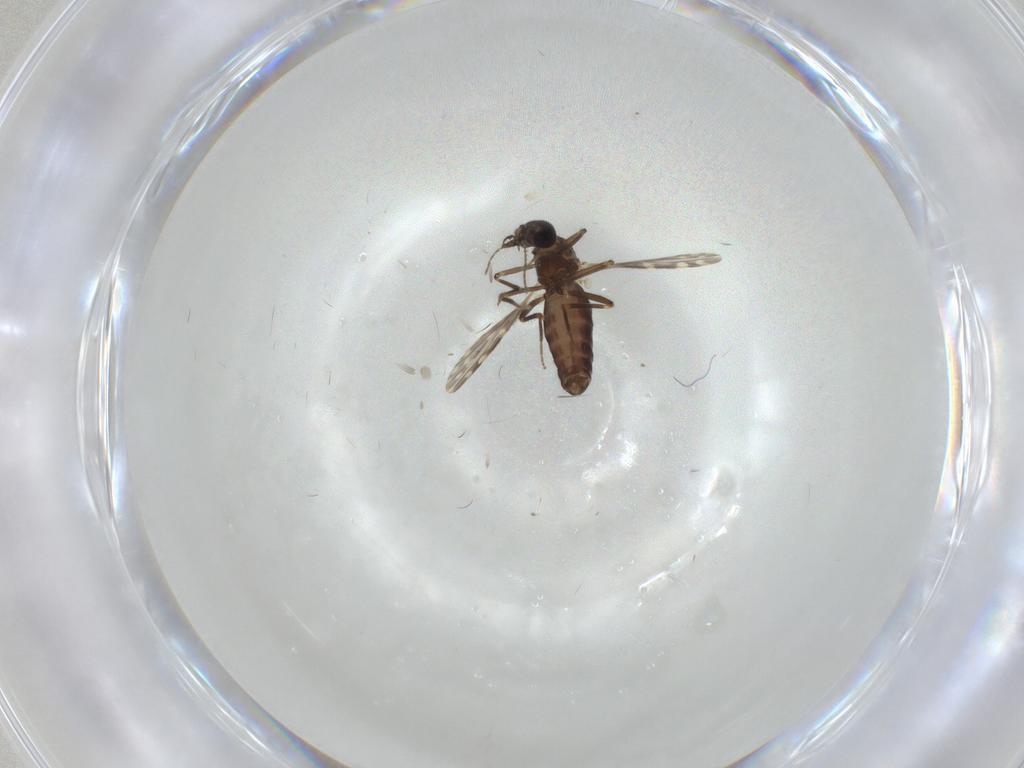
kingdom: Animalia
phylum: Arthropoda
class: Insecta
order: Diptera
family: Ceratopogonidae
